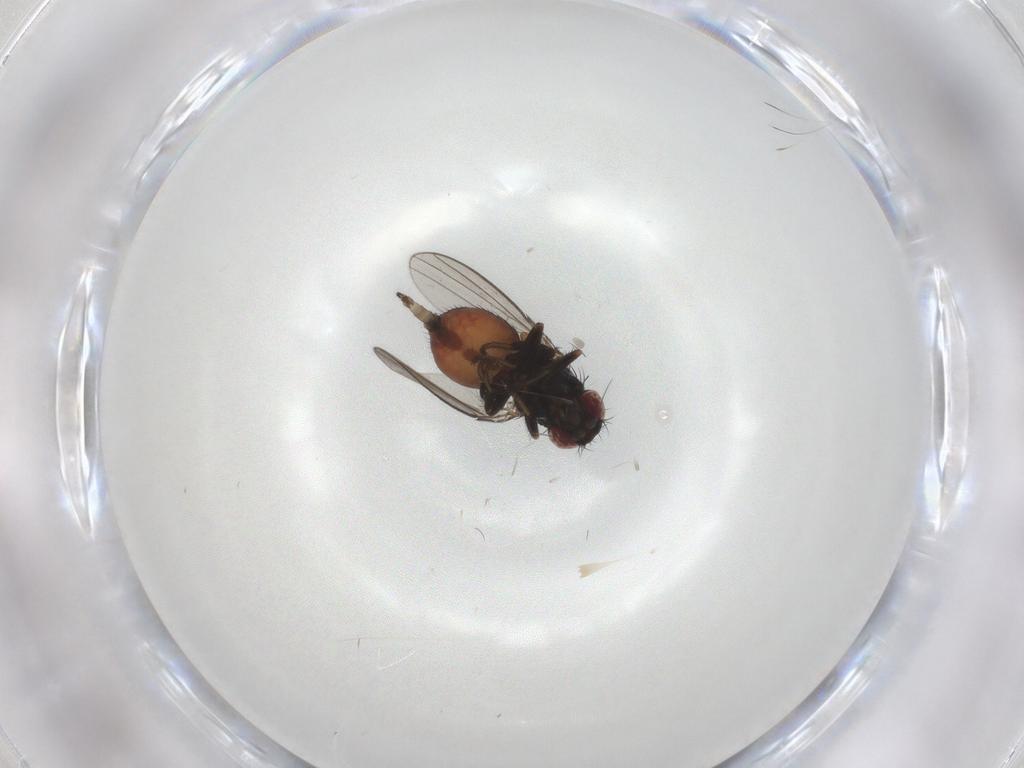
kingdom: Animalia
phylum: Arthropoda
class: Insecta
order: Diptera
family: Milichiidae
